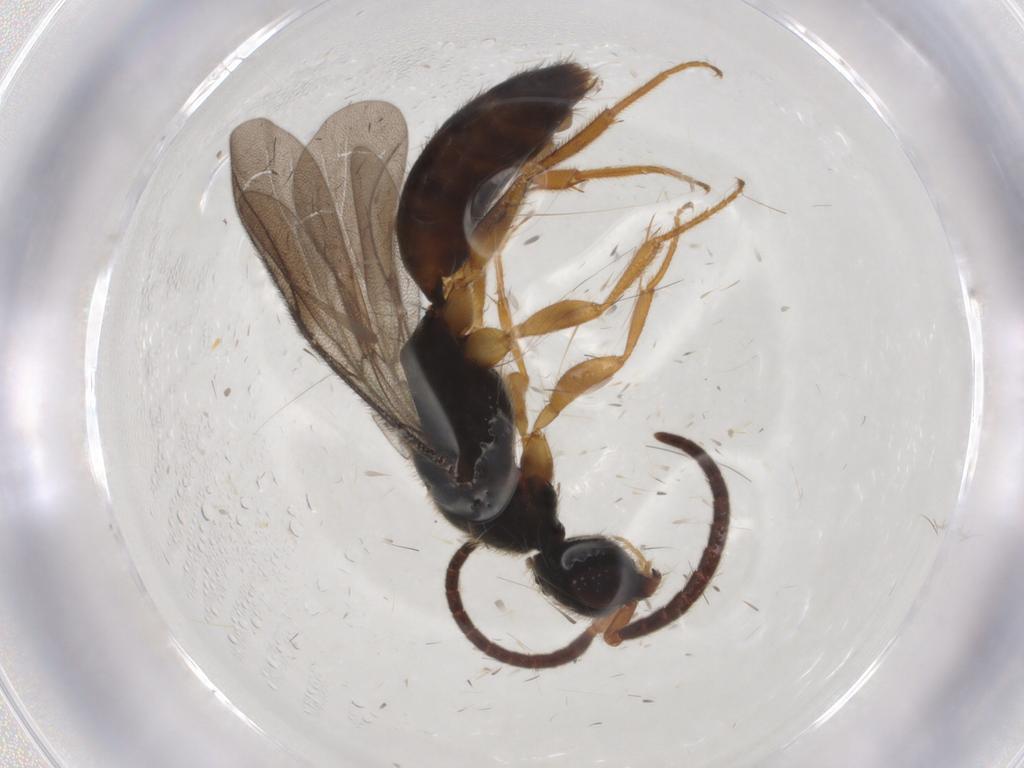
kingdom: Animalia
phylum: Arthropoda
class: Insecta
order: Hymenoptera
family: Bethylidae
